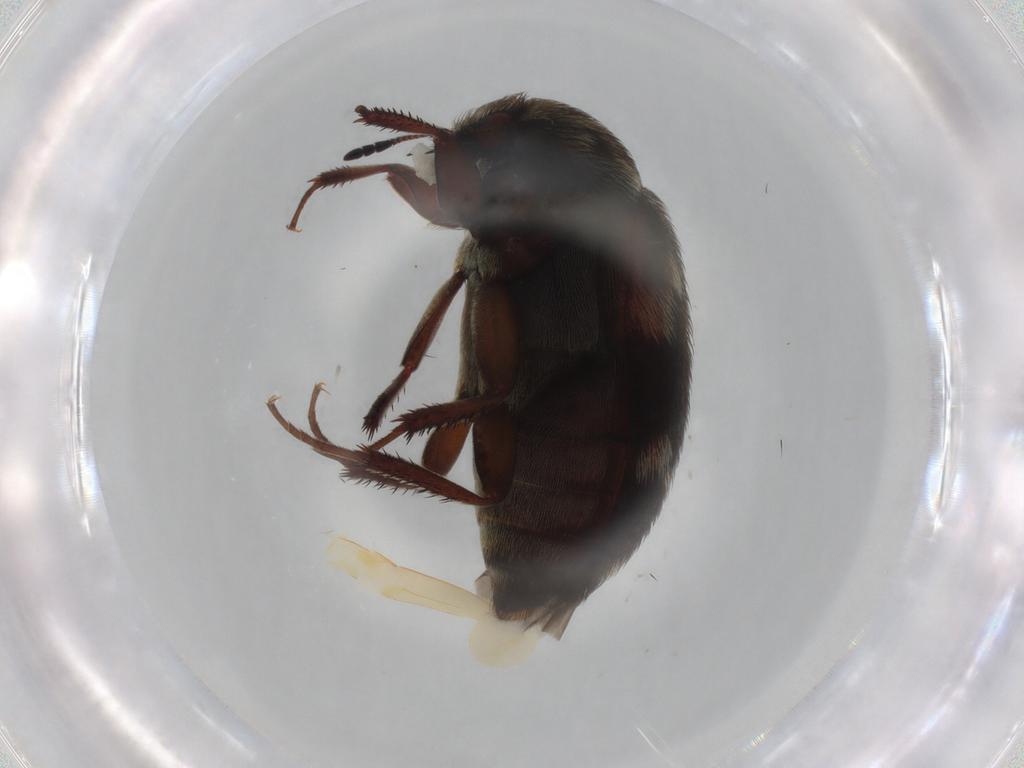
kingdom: Animalia
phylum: Arthropoda
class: Insecta
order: Coleoptera
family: Dermestidae
